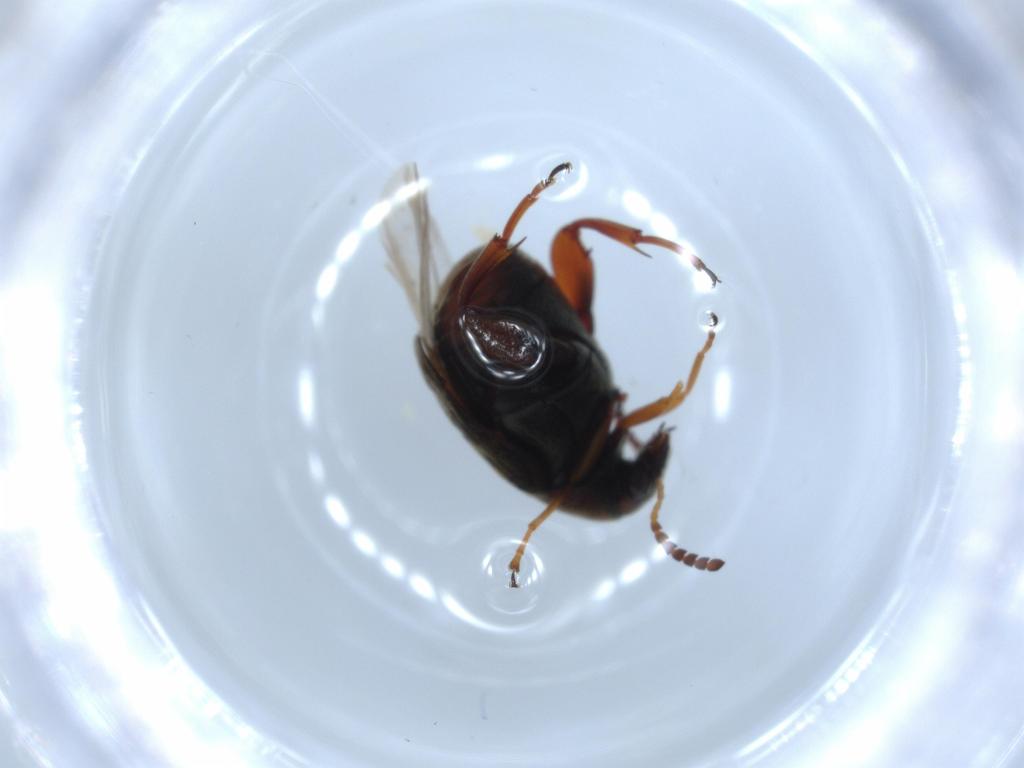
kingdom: Animalia
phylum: Arthropoda
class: Insecta
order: Coleoptera
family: Chrysomelidae
